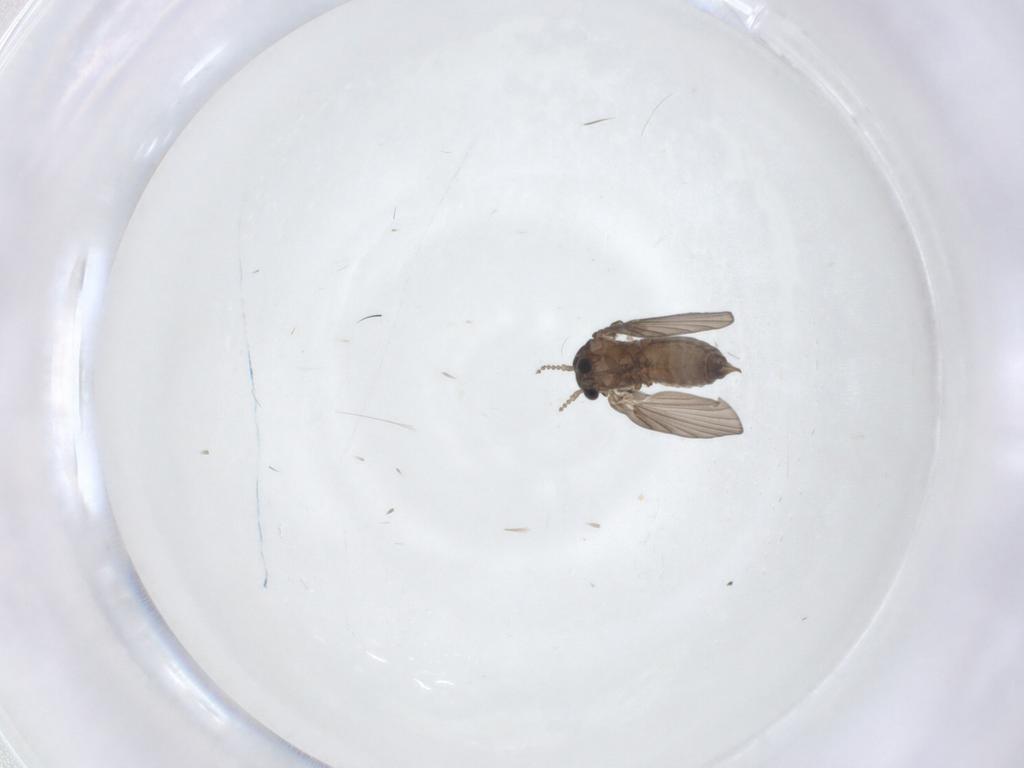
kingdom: Animalia
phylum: Arthropoda
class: Insecta
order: Diptera
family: Psychodidae
